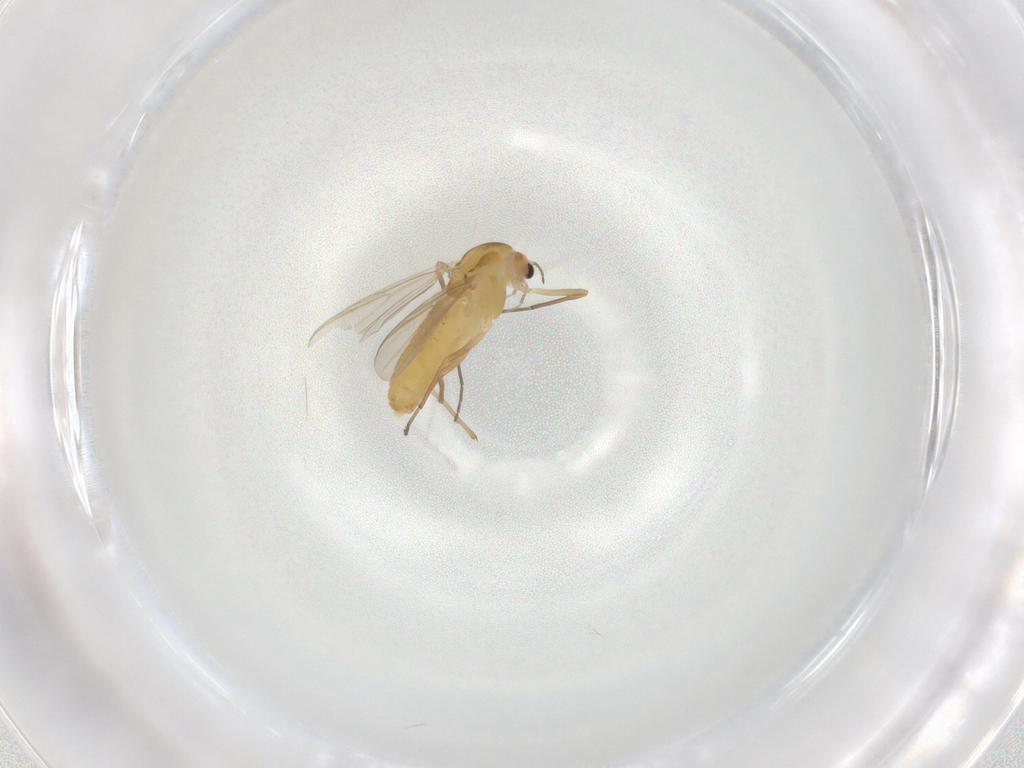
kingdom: Animalia
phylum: Arthropoda
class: Insecta
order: Diptera
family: Chironomidae
